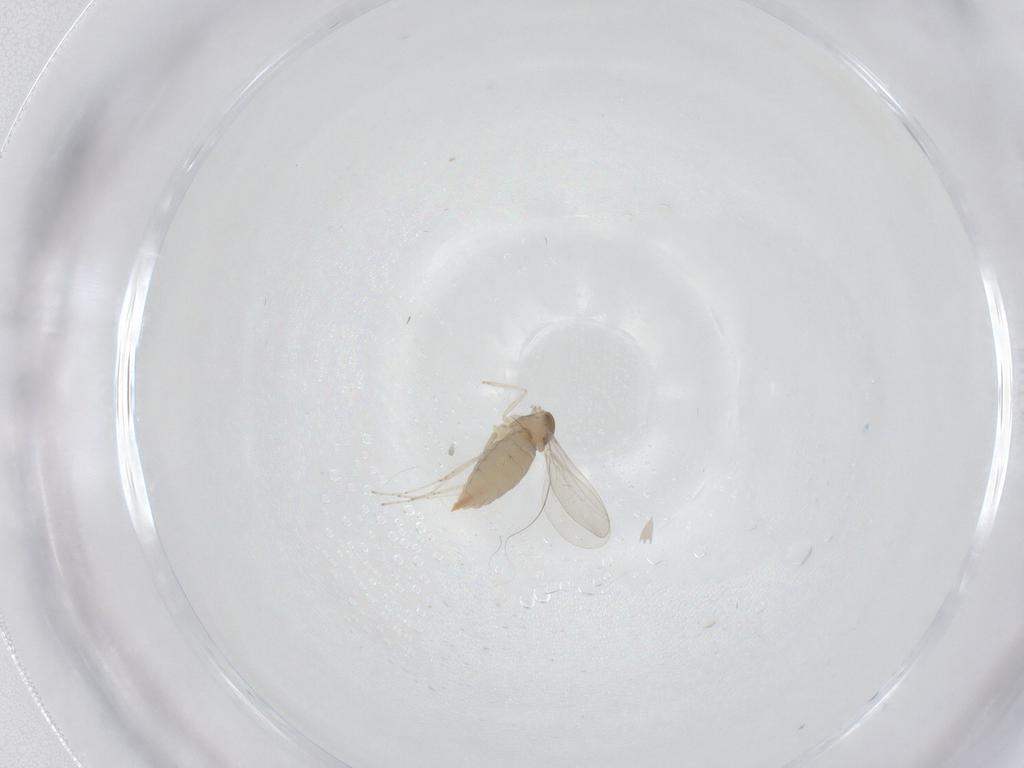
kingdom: Animalia
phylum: Arthropoda
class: Insecta
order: Diptera
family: Cecidomyiidae
